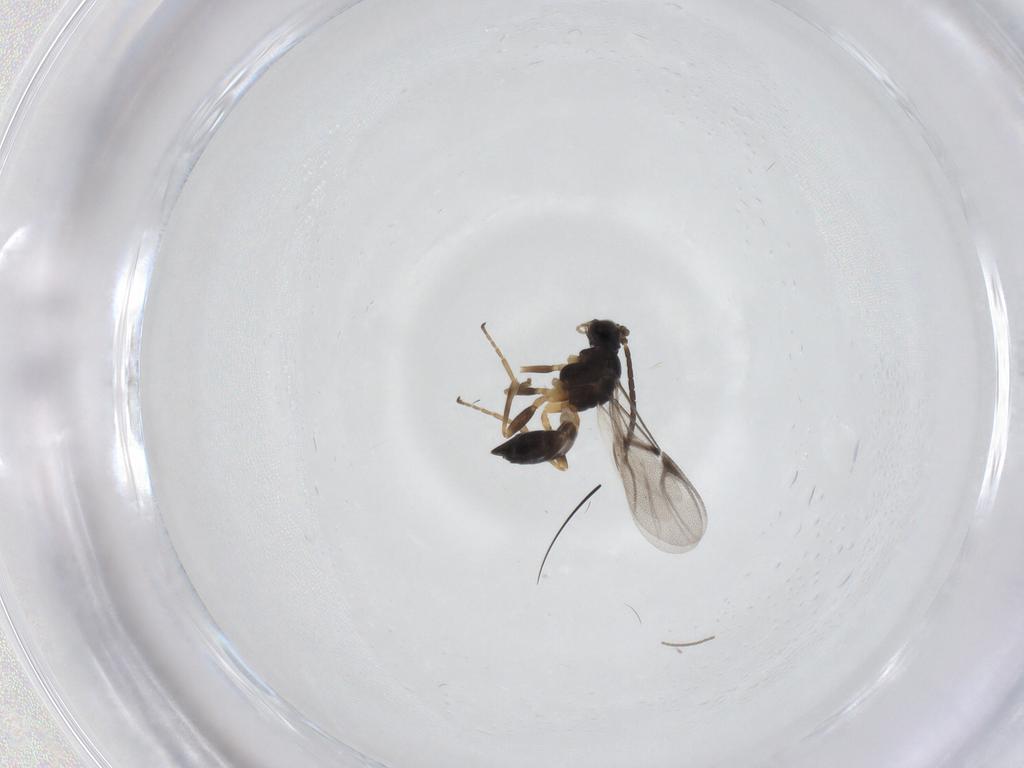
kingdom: Animalia
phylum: Arthropoda
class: Insecta
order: Hymenoptera
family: Braconidae
